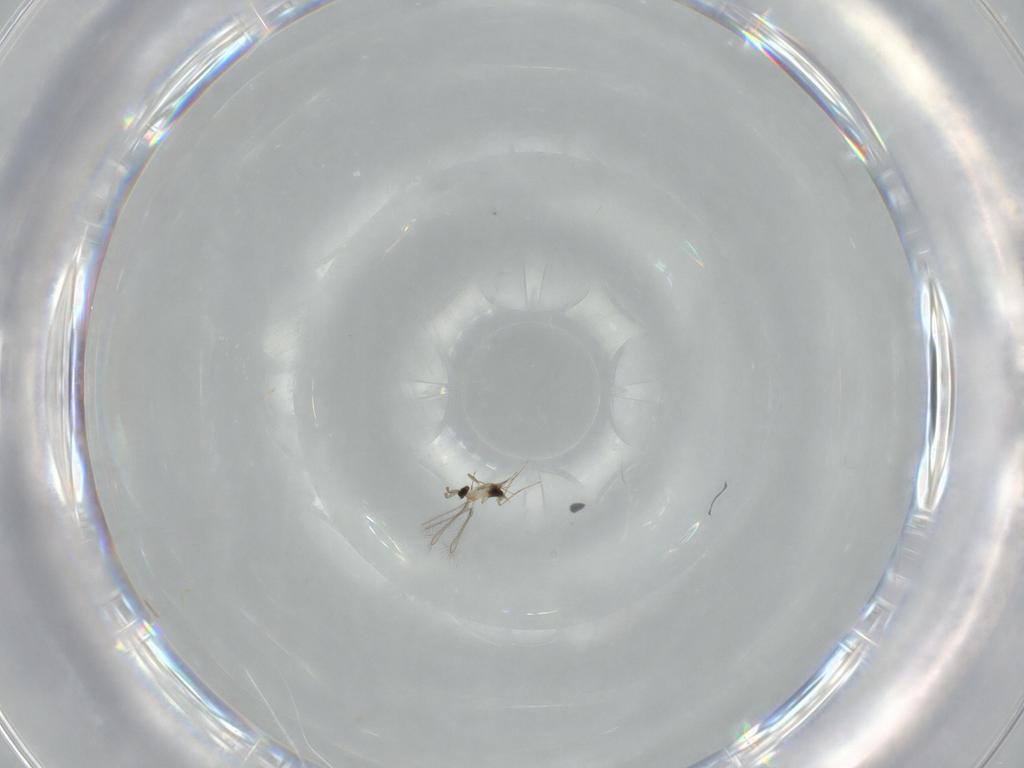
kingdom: Animalia
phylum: Arthropoda
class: Insecta
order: Hymenoptera
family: Mymaridae
